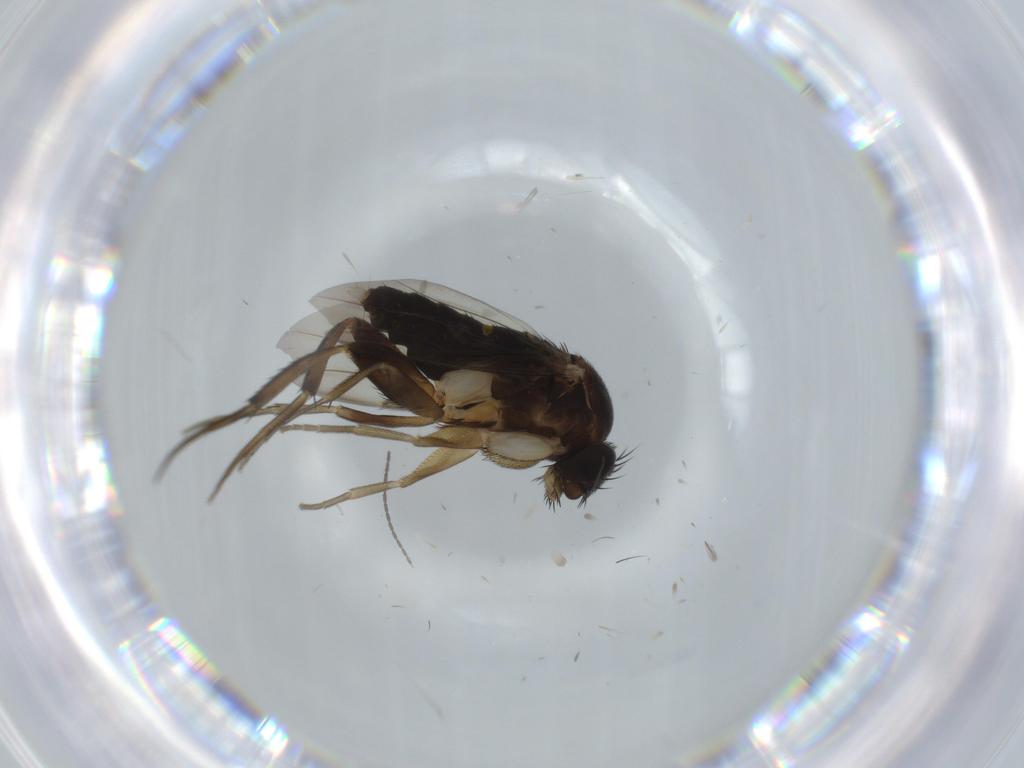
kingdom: Animalia
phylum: Arthropoda
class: Insecta
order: Diptera
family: Phoridae
